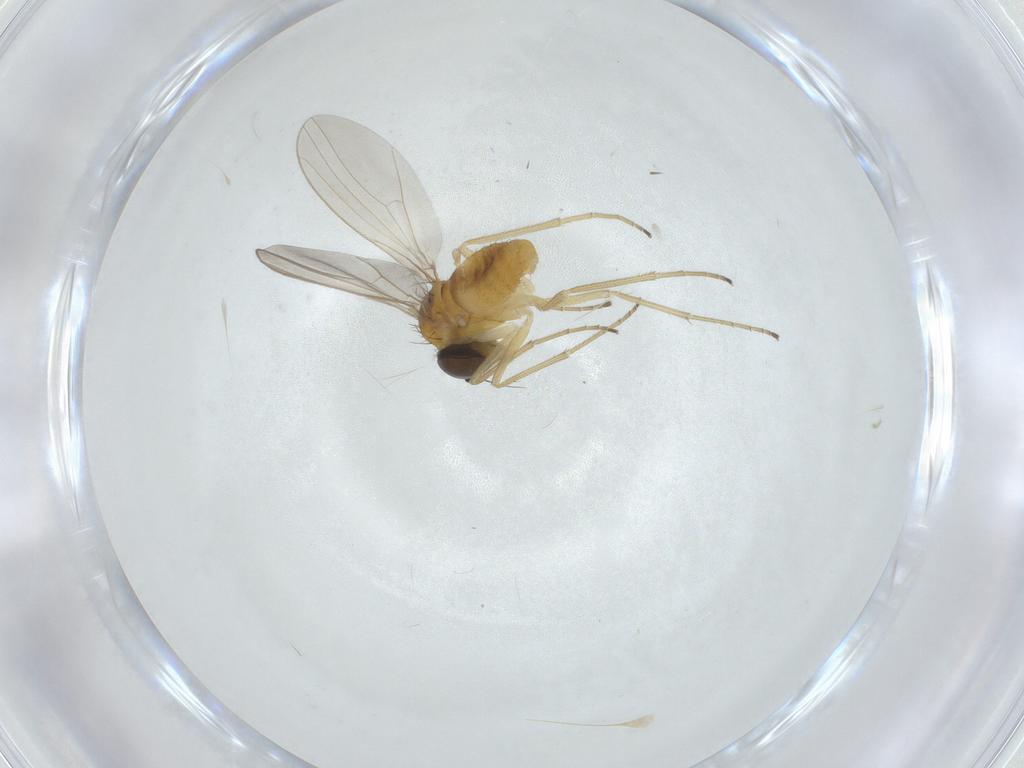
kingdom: Animalia
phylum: Arthropoda
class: Insecta
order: Diptera
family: Dolichopodidae
